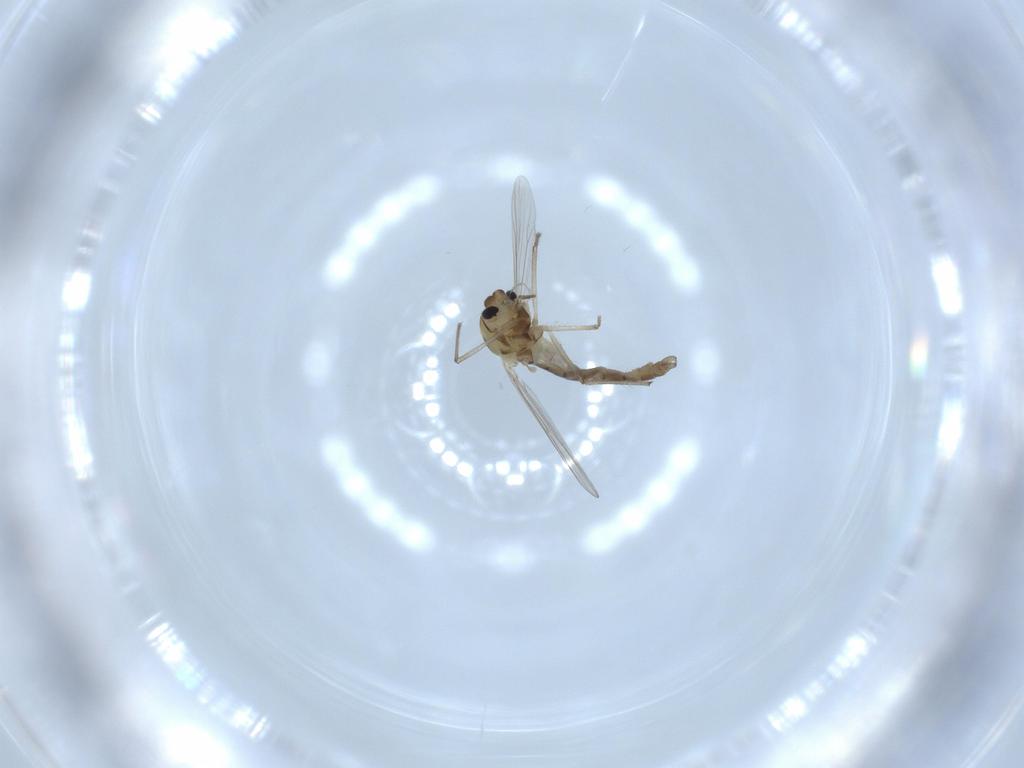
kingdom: Animalia
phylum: Arthropoda
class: Insecta
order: Diptera
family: Chironomidae
